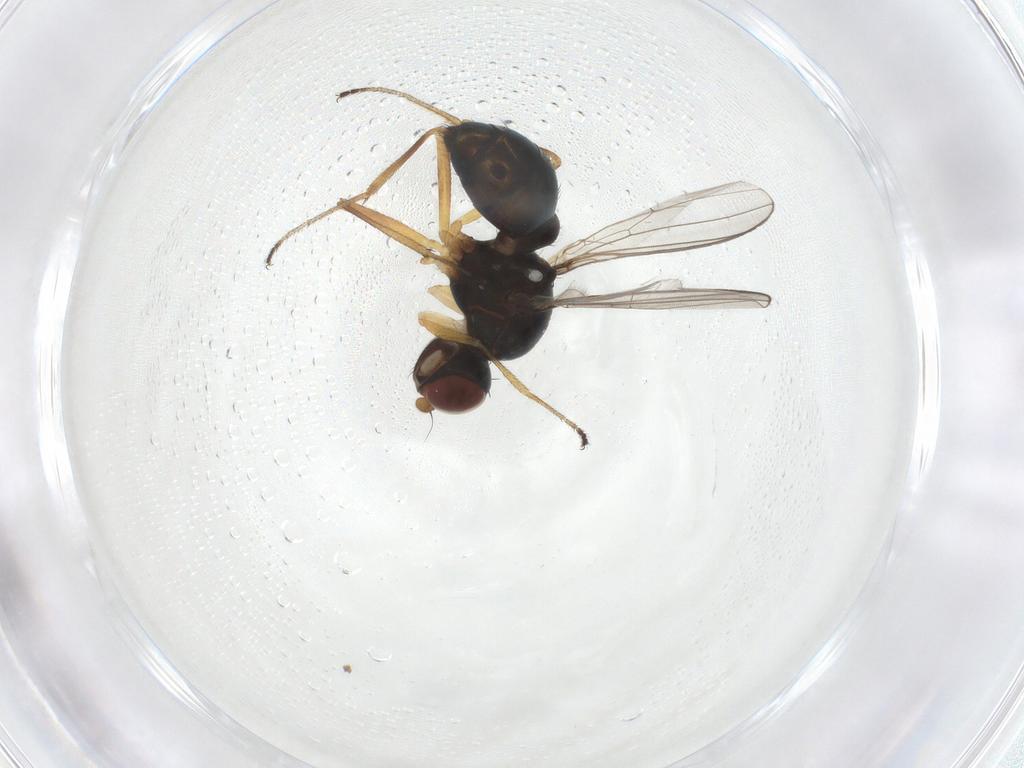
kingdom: Animalia
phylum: Arthropoda
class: Insecta
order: Diptera
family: Sepsidae
